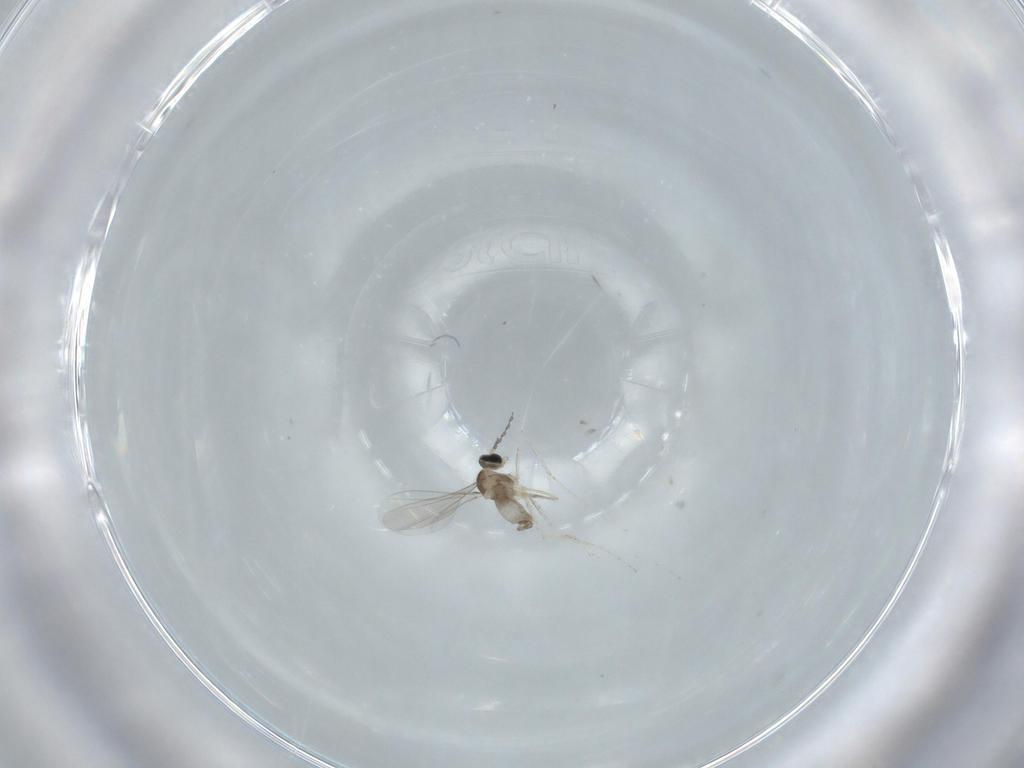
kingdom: Animalia
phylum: Arthropoda
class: Insecta
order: Diptera
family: Cecidomyiidae
